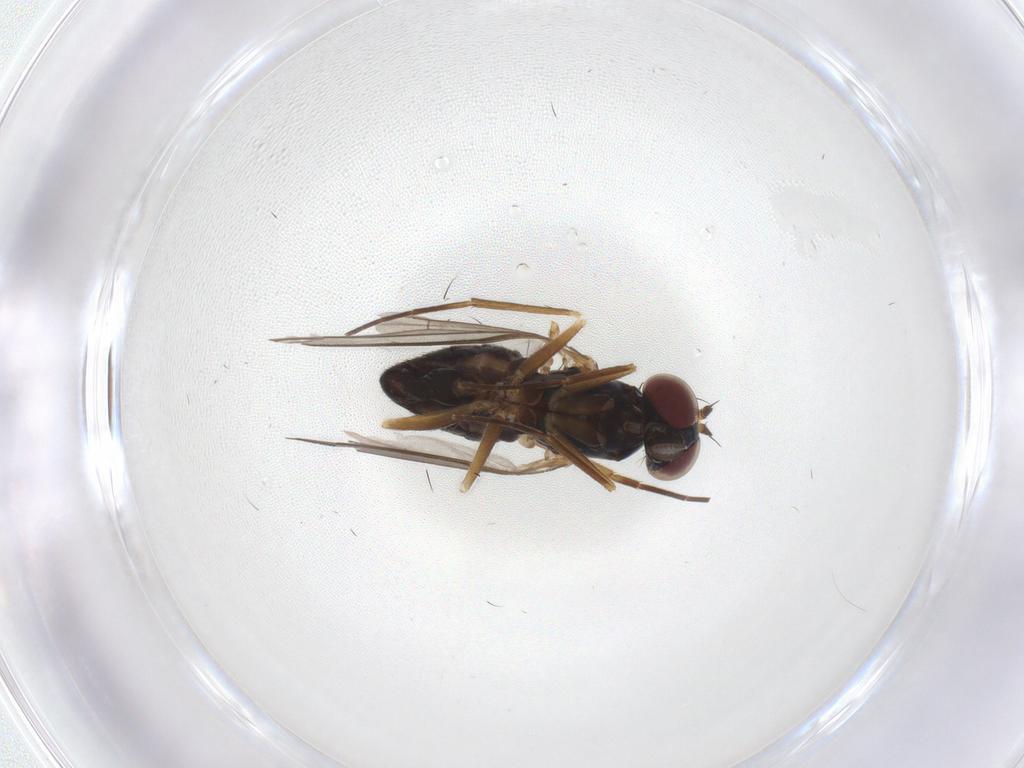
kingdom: Animalia
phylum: Arthropoda
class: Insecta
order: Diptera
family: Dolichopodidae
